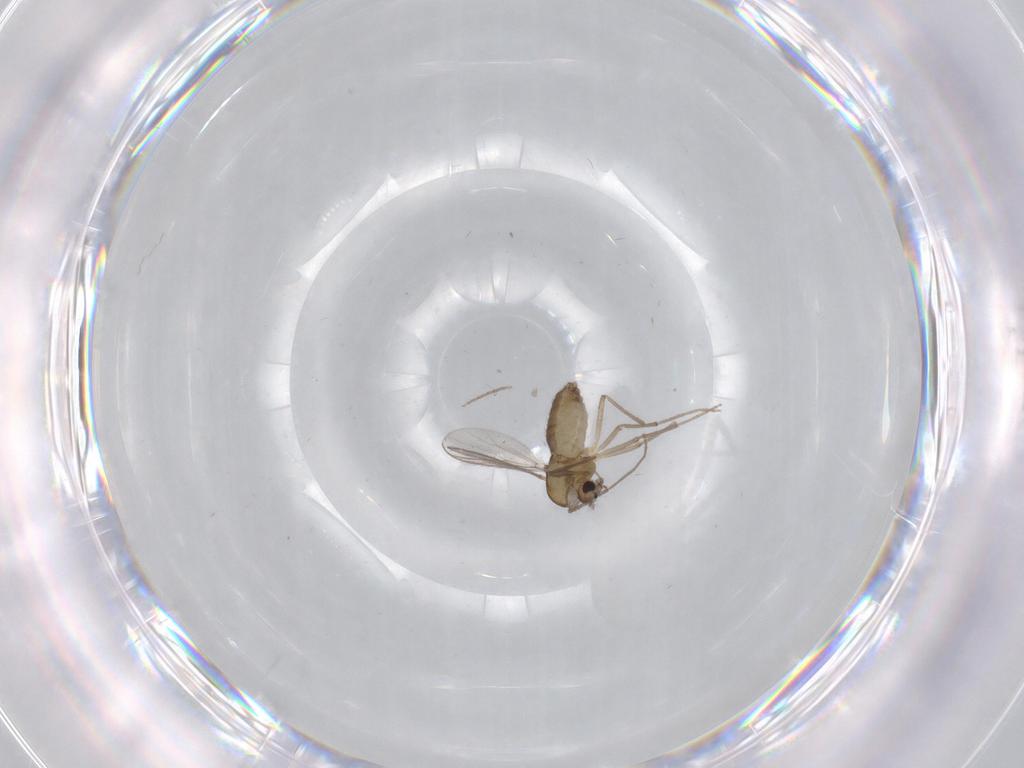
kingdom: Animalia
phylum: Arthropoda
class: Insecta
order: Diptera
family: Chironomidae
